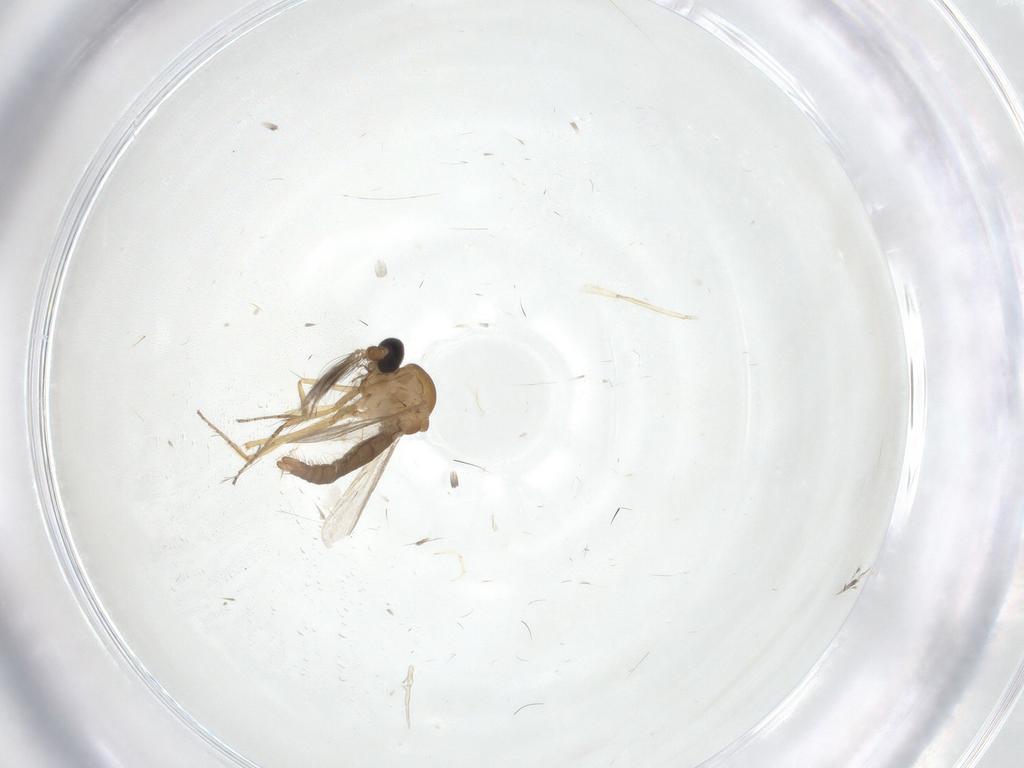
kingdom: Animalia
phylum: Arthropoda
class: Insecta
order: Diptera
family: Ceratopogonidae
